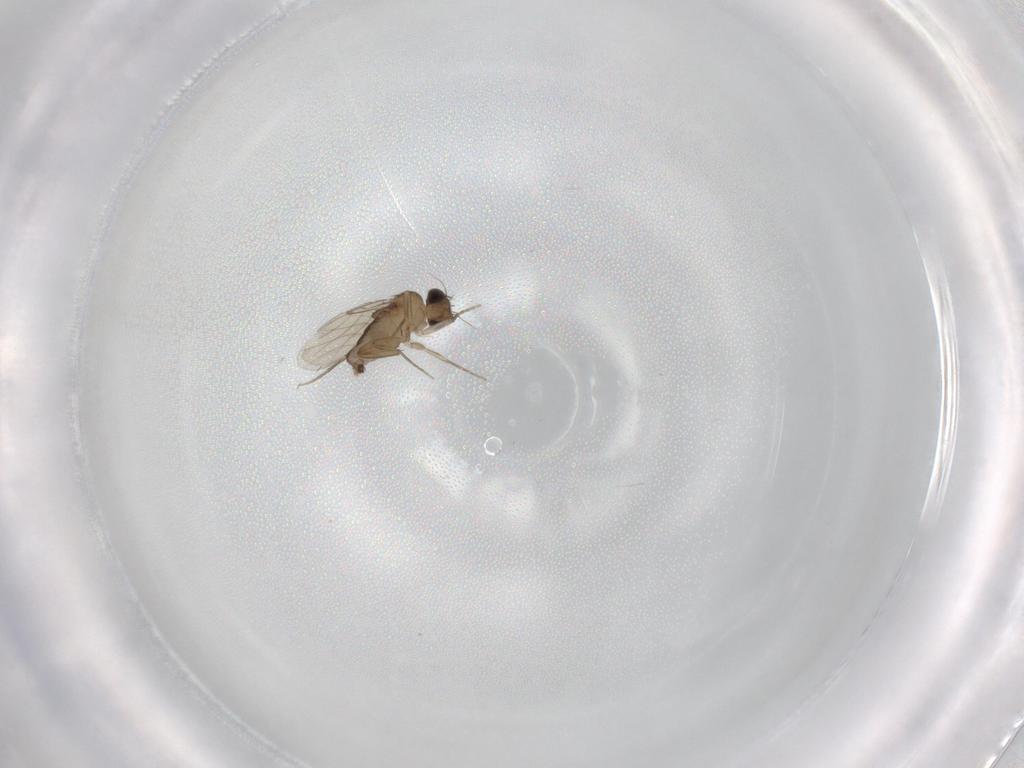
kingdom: Animalia
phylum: Arthropoda
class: Insecta
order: Diptera
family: Phoridae
